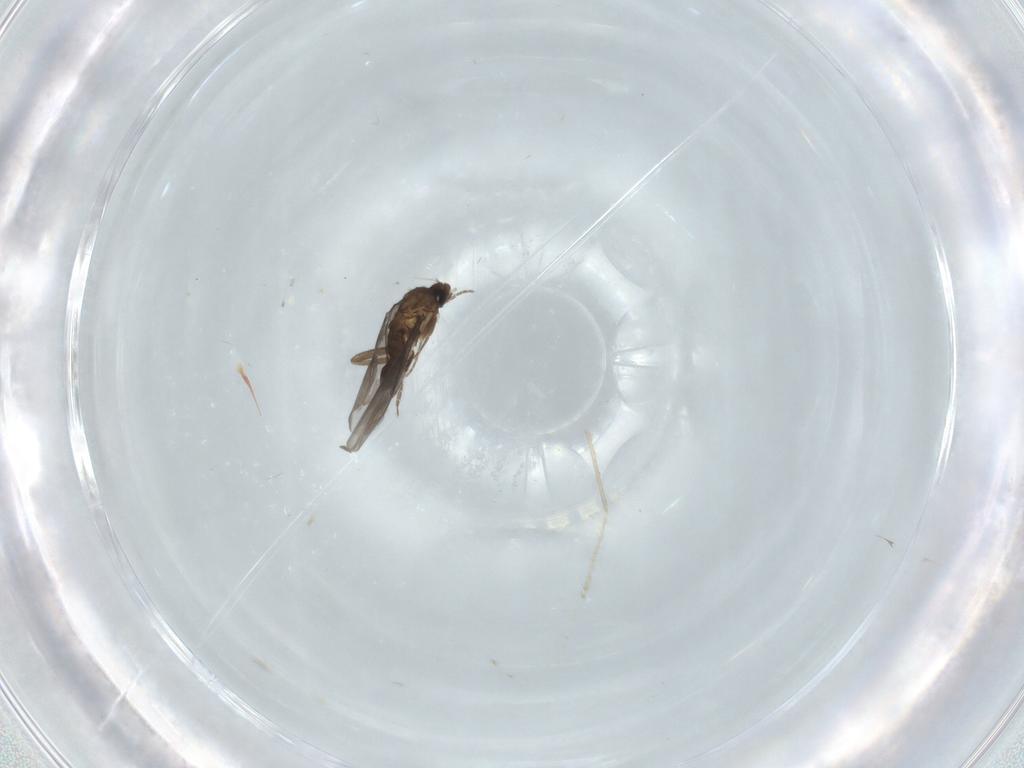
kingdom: Animalia
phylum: Arthropoda
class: Insecta
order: Diptera
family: Cecidomyiidae
